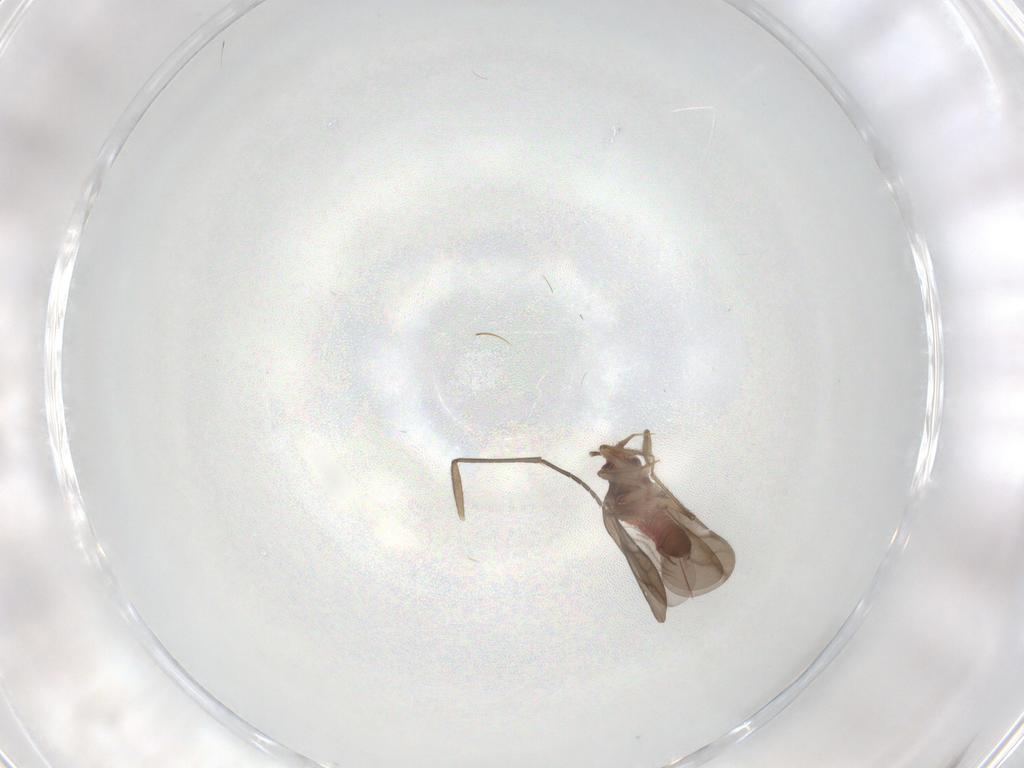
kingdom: Animalia
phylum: Arthropoda
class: Insecta
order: Hemiptera
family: Ceratocombidae
